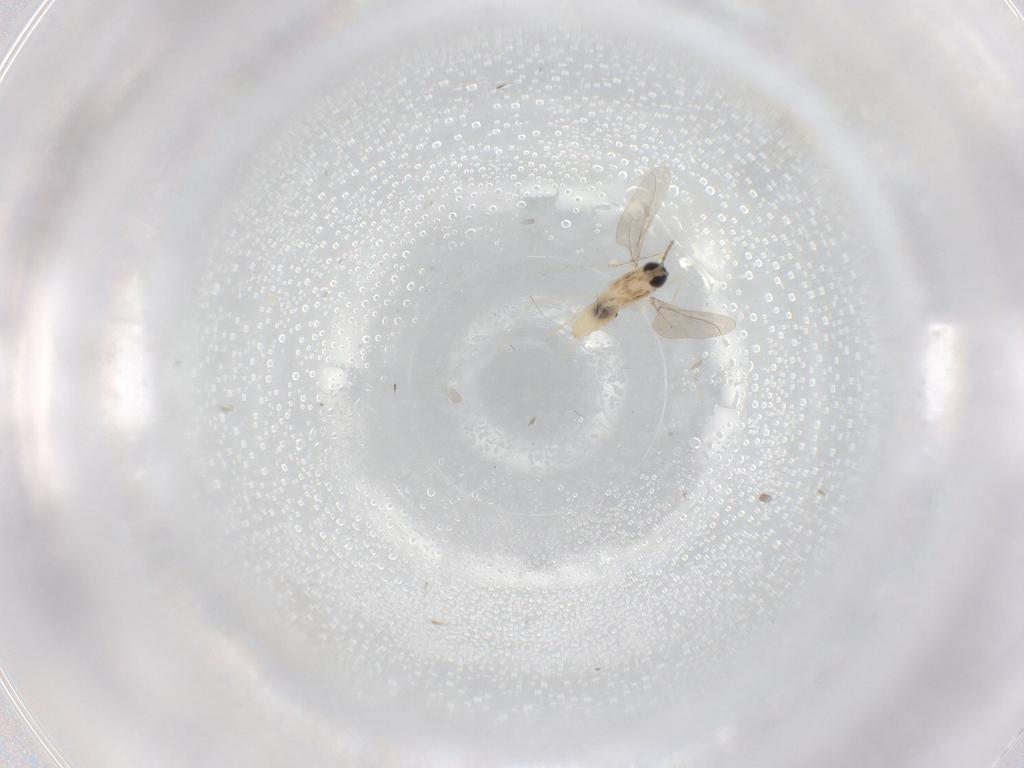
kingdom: Animalia
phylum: Arthropoda
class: Insecta
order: Diptera
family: Cecidomyiidae
